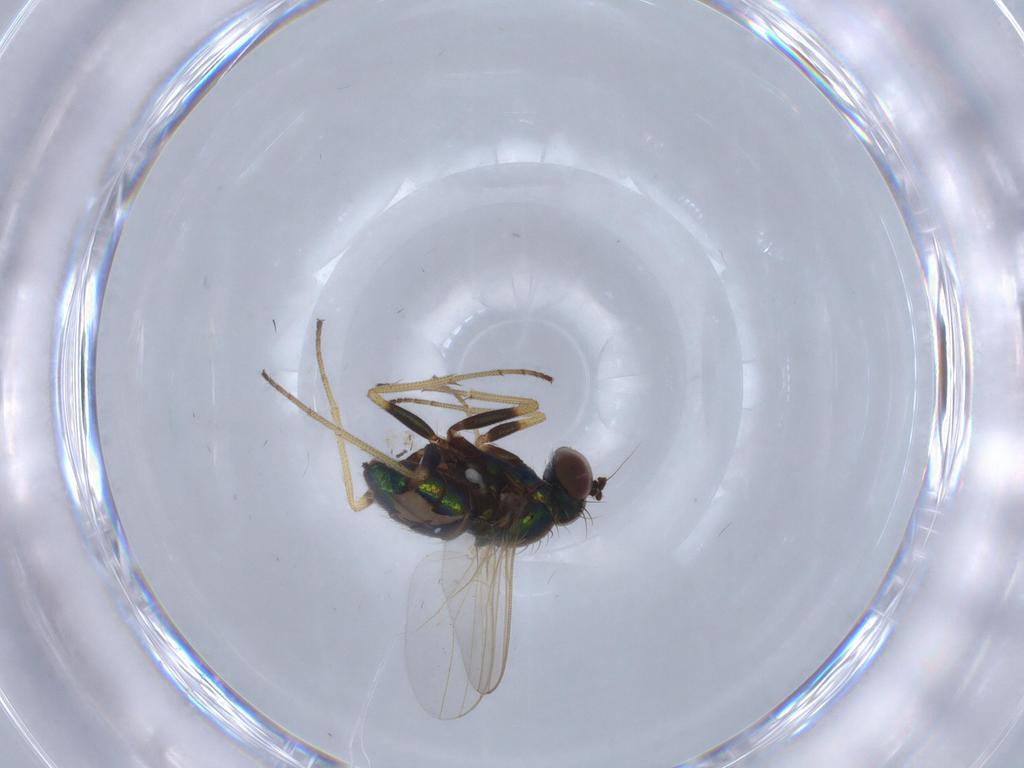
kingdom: Animalia
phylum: Arthropoda
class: Insecta
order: Diptera
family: Dolichopodidae
